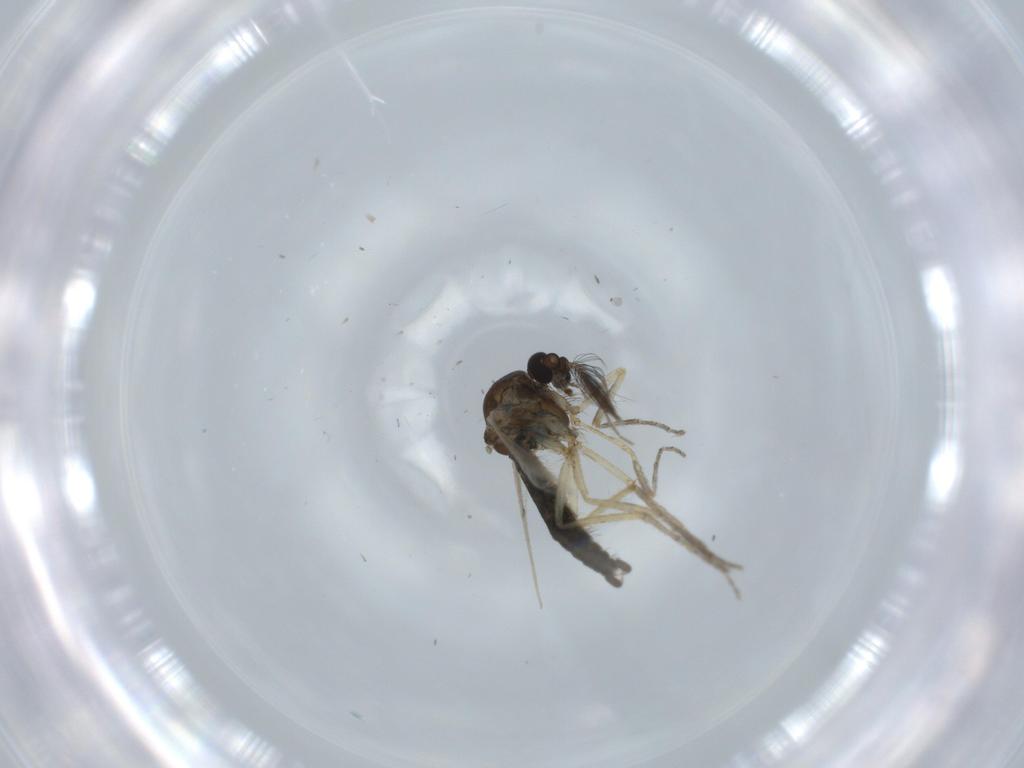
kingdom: Animalia
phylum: Arthropoda
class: Insecta
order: Diptera
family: Ceratopogonidae
